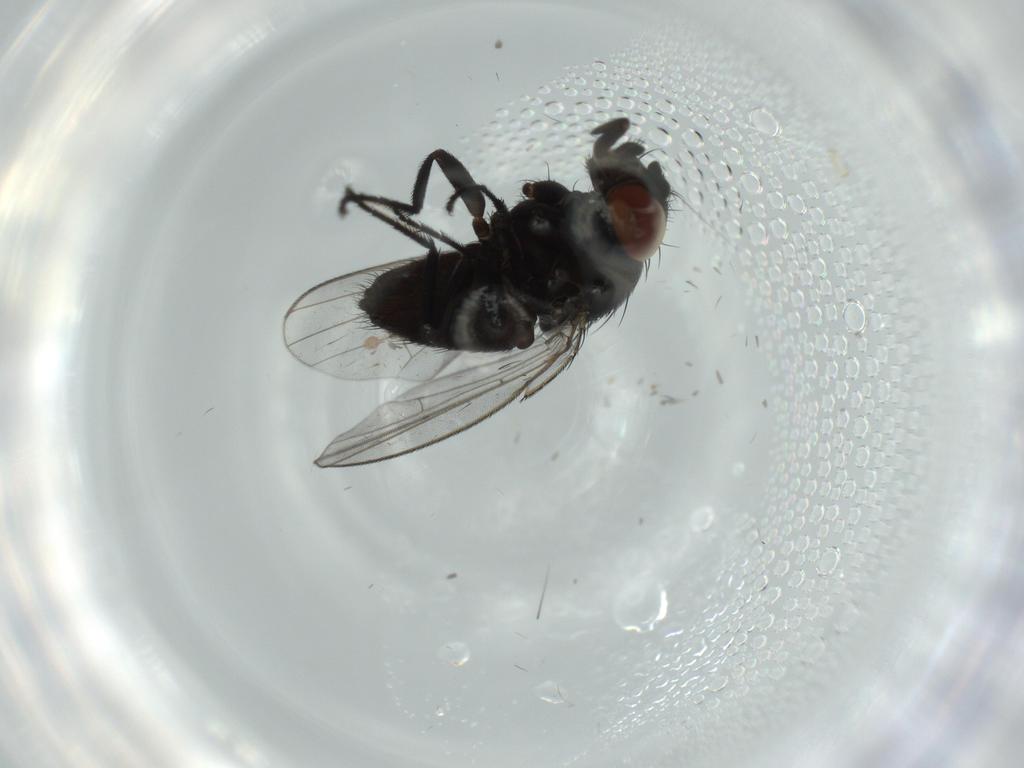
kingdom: Animalia
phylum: Arthropoda
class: Insecta
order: Diptera
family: Milichiidae
